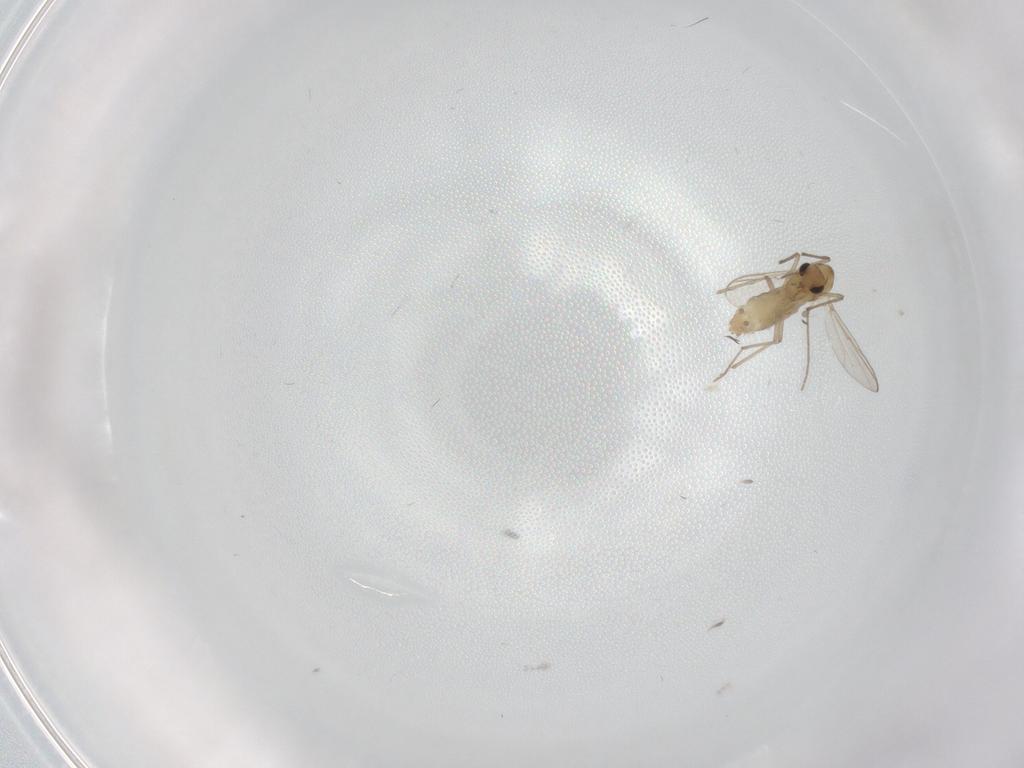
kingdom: Animalia
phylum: Arthropoda
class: Insecta
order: Diptera
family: Chironomidae
